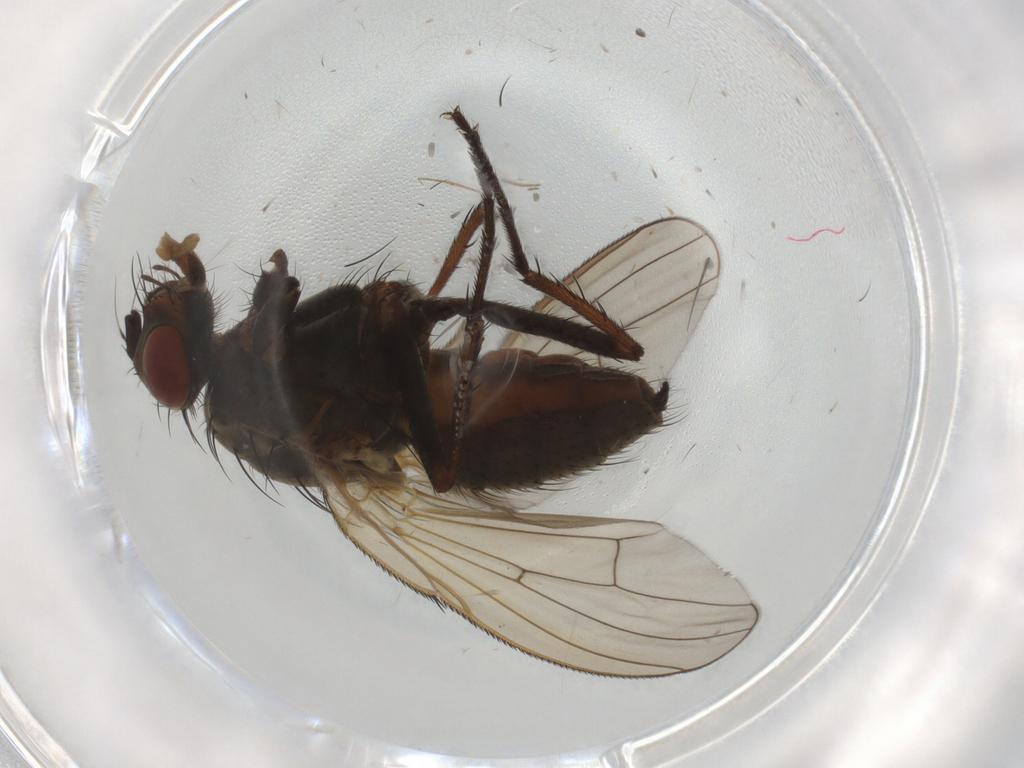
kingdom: Animalia
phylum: Arthropoda
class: Insecta
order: Diptera
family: Anthomyiidae
